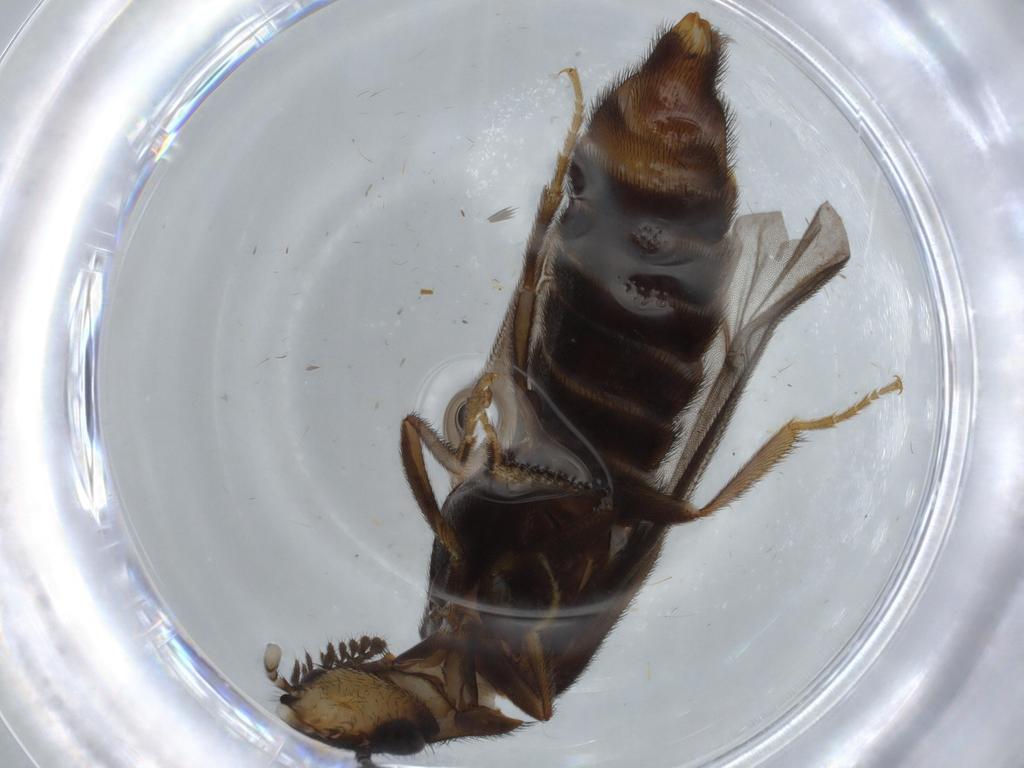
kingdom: Animalia
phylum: Arthropoda
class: Insecta
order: Coleoptera
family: Phengodidae
